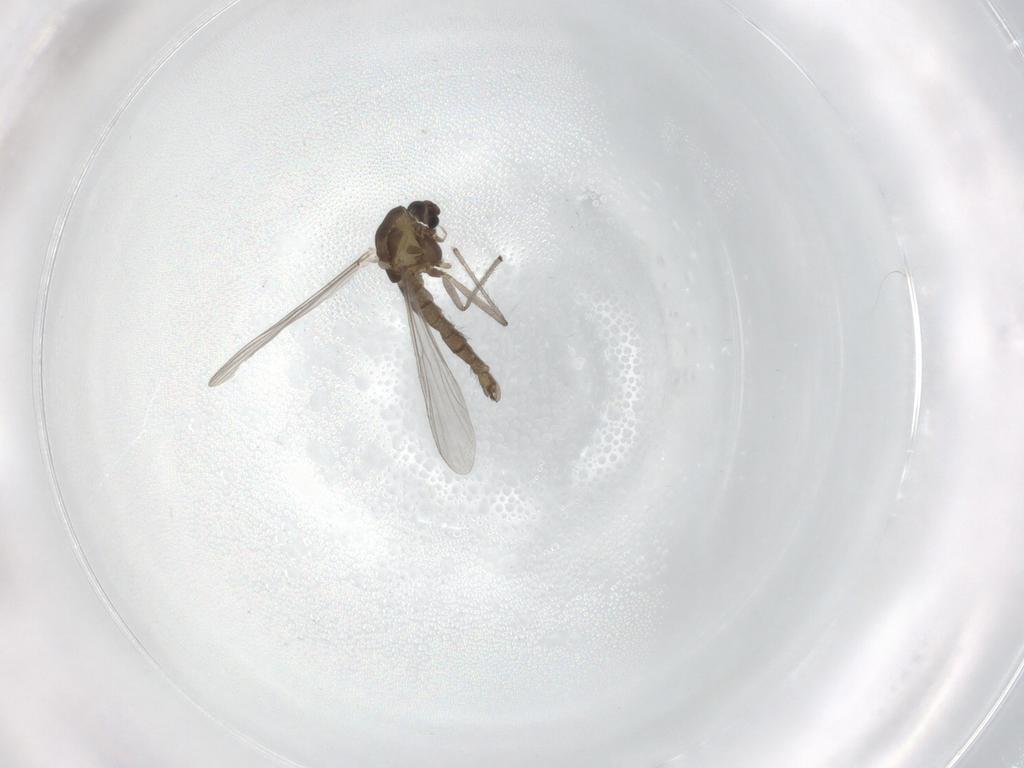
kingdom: Animalia
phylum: Arthropoda
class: Insecta
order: Diptera
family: Chironomidae
